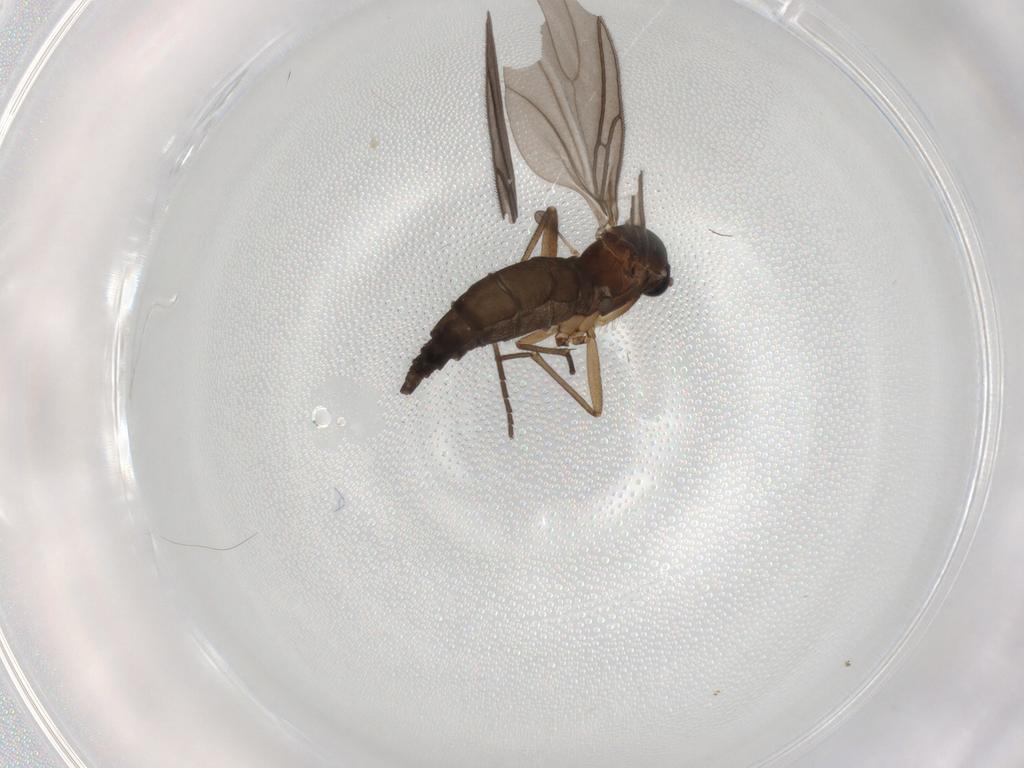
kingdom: Animalia
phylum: Arthropoda
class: Insecta
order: Diptera
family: Sciaridae
